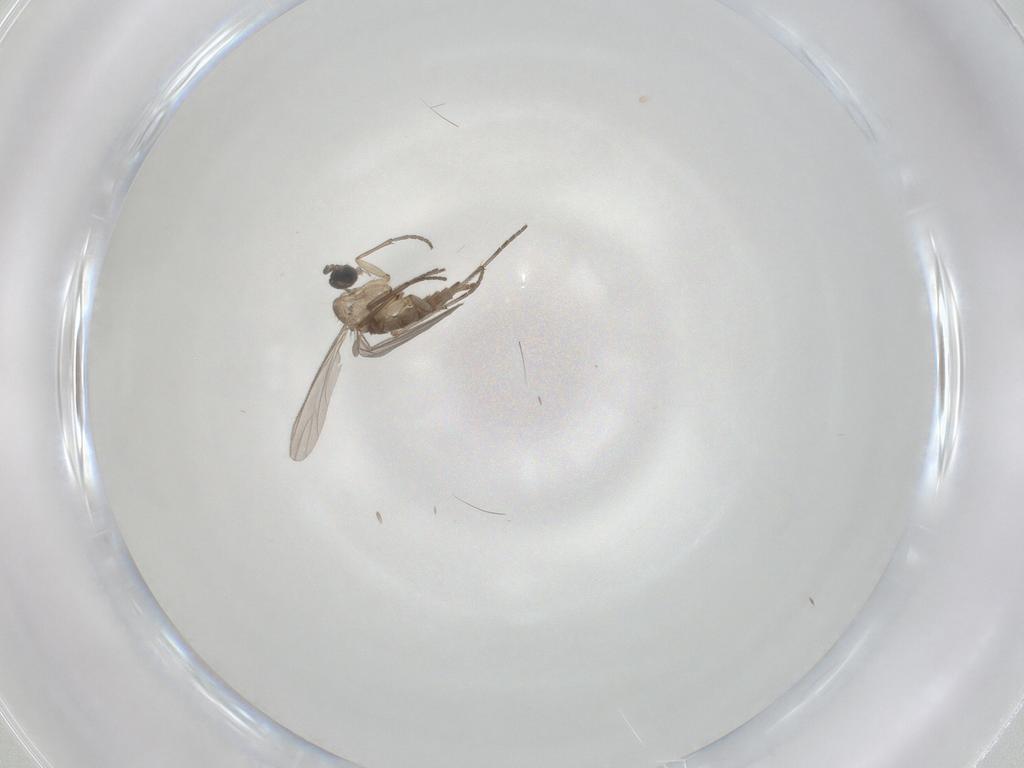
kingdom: Animalia
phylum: Arthropoda
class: Insecta
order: Diptera
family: Sciaridae
